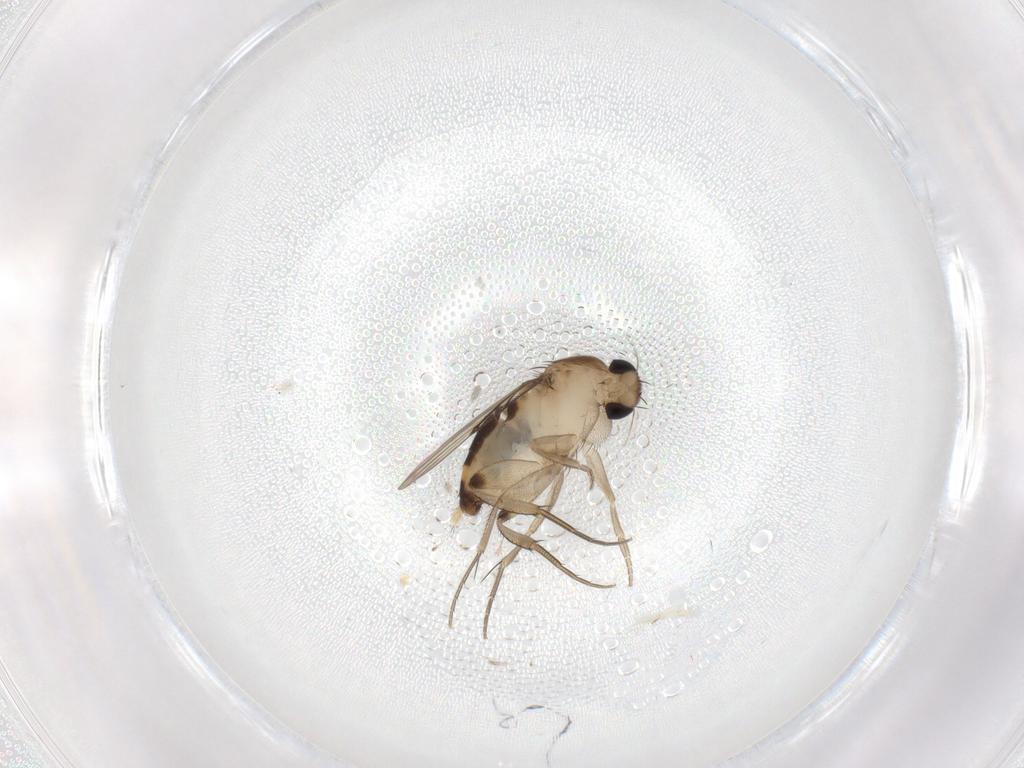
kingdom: Animalia
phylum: Arthropoda
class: Insecta
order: Diptera
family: Phoridae
